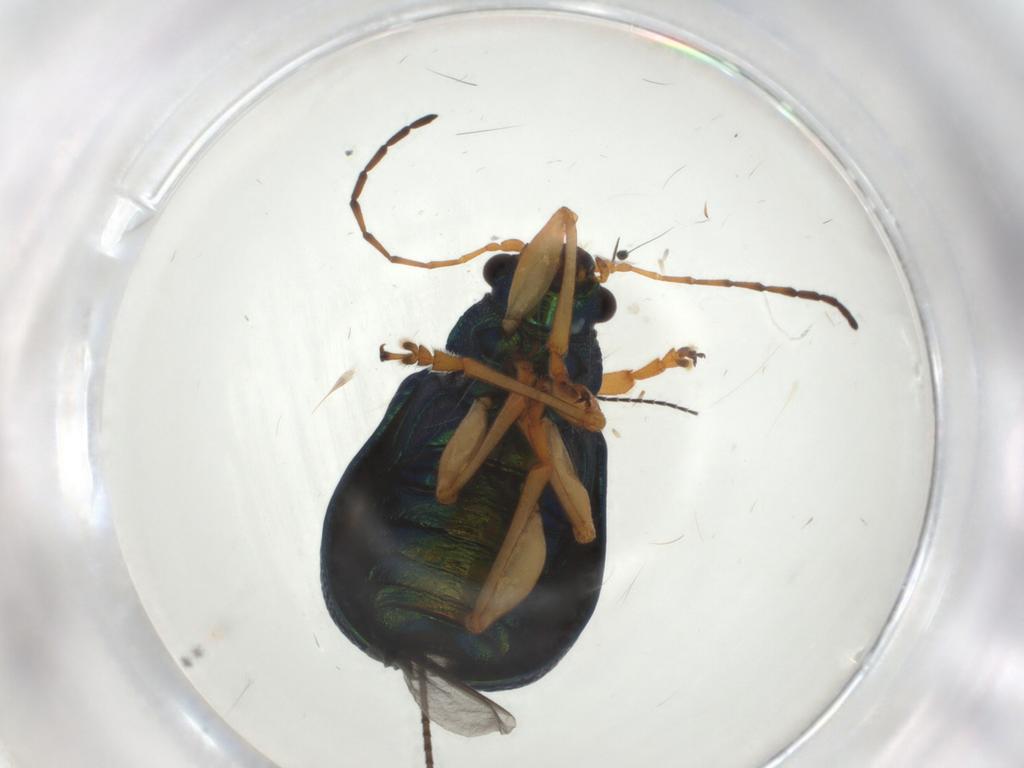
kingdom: Animalia
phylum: Arthropoda
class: Insecta
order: Coleoptera
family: Chrysomelidae
